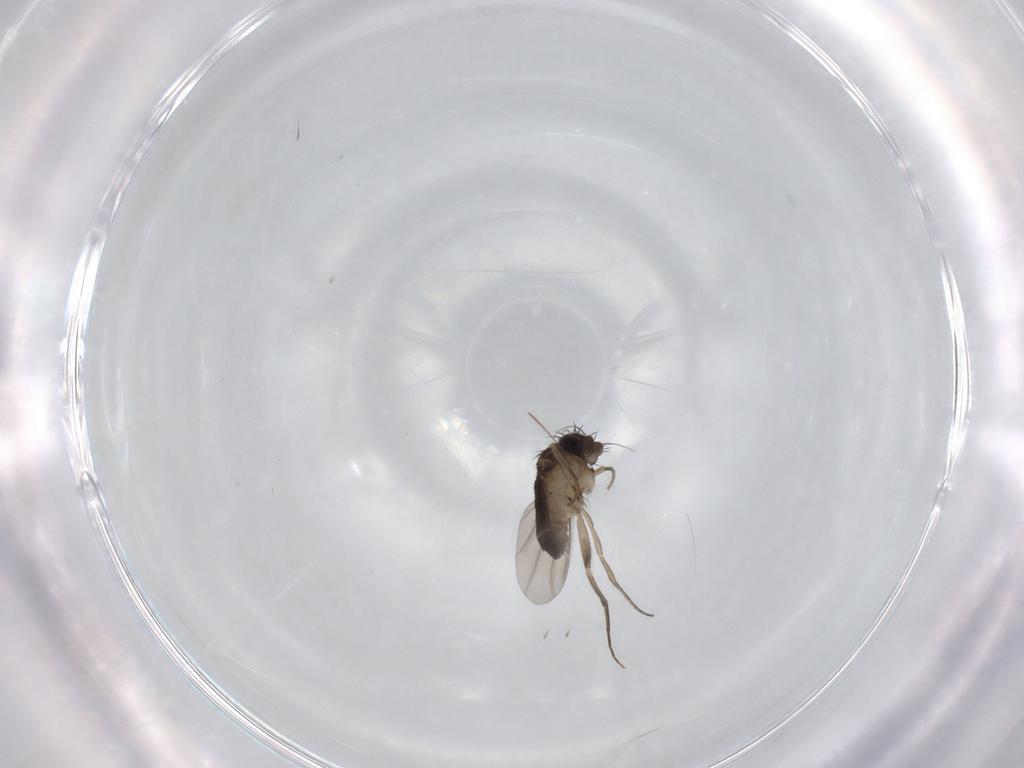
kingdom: Animalia
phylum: Arthropoda
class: Insecta
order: Diptera
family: Phoridae
